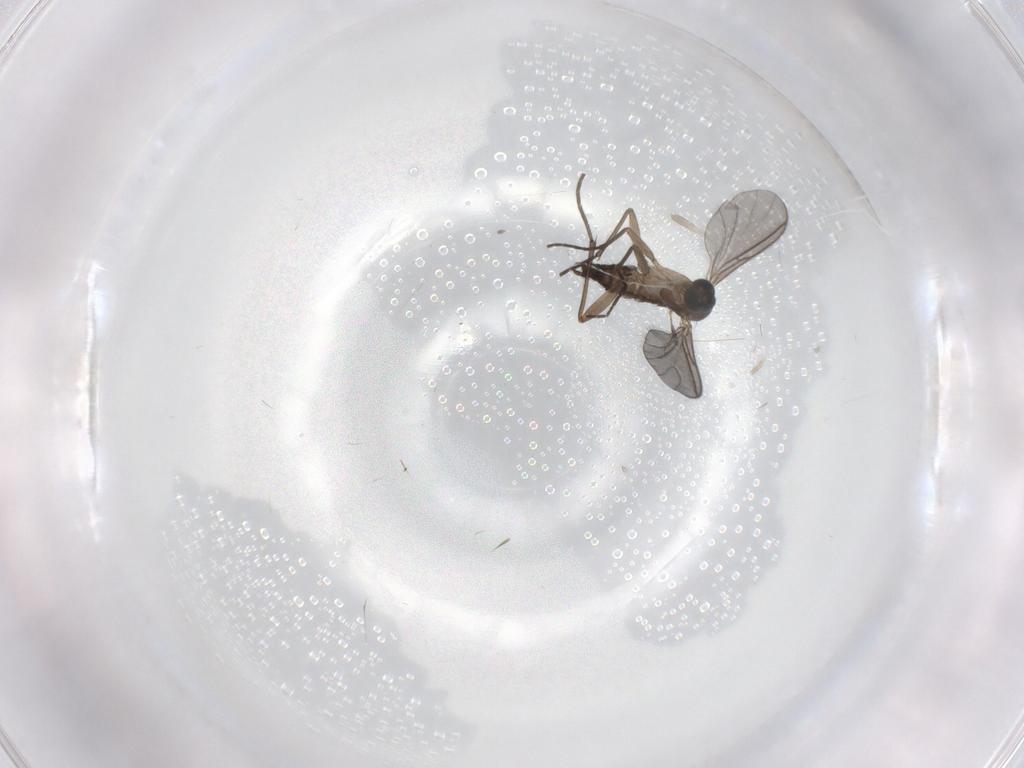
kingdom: Animalia
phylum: Arthropoda
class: Insecta
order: Diptera
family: Sciaridae
